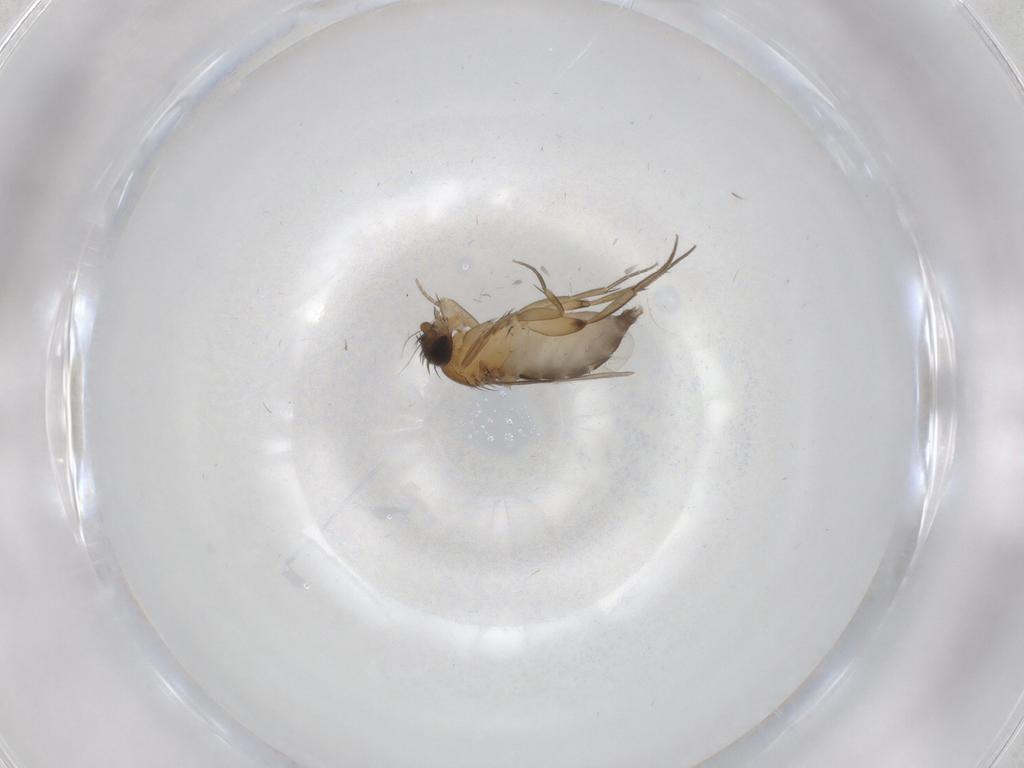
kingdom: Animalia
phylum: Arthropoda
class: Insecta
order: Diptera
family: Phoridae
